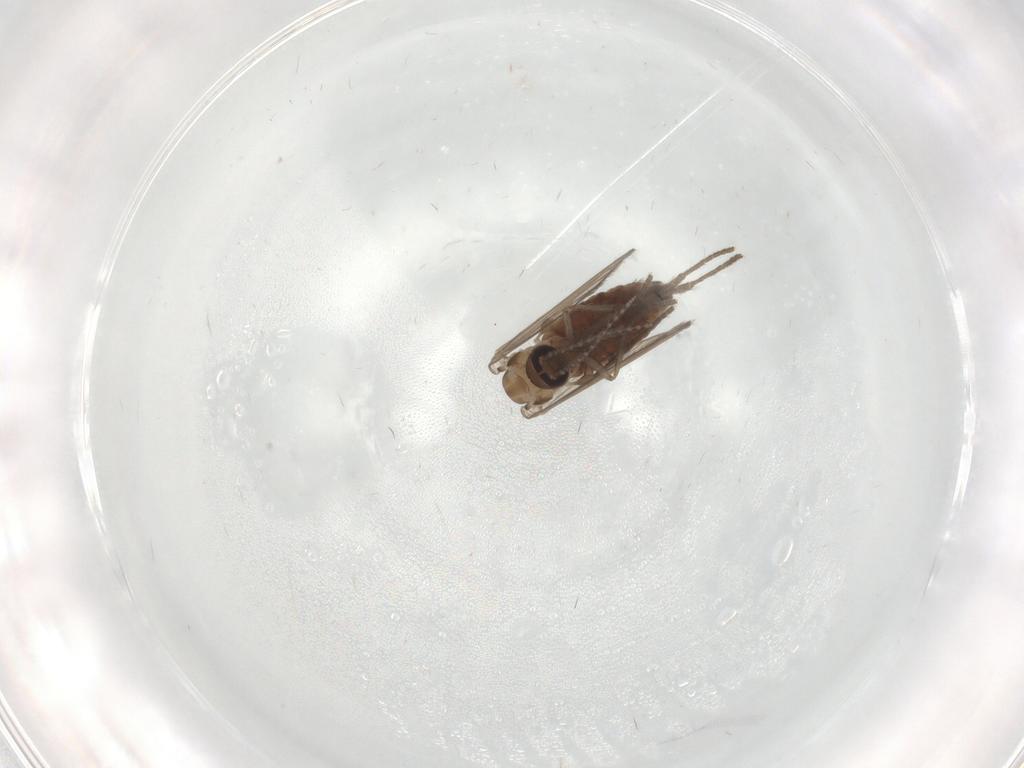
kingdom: Animalia
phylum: Arthropoda
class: Insecta
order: Diptera
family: Psychodidae
